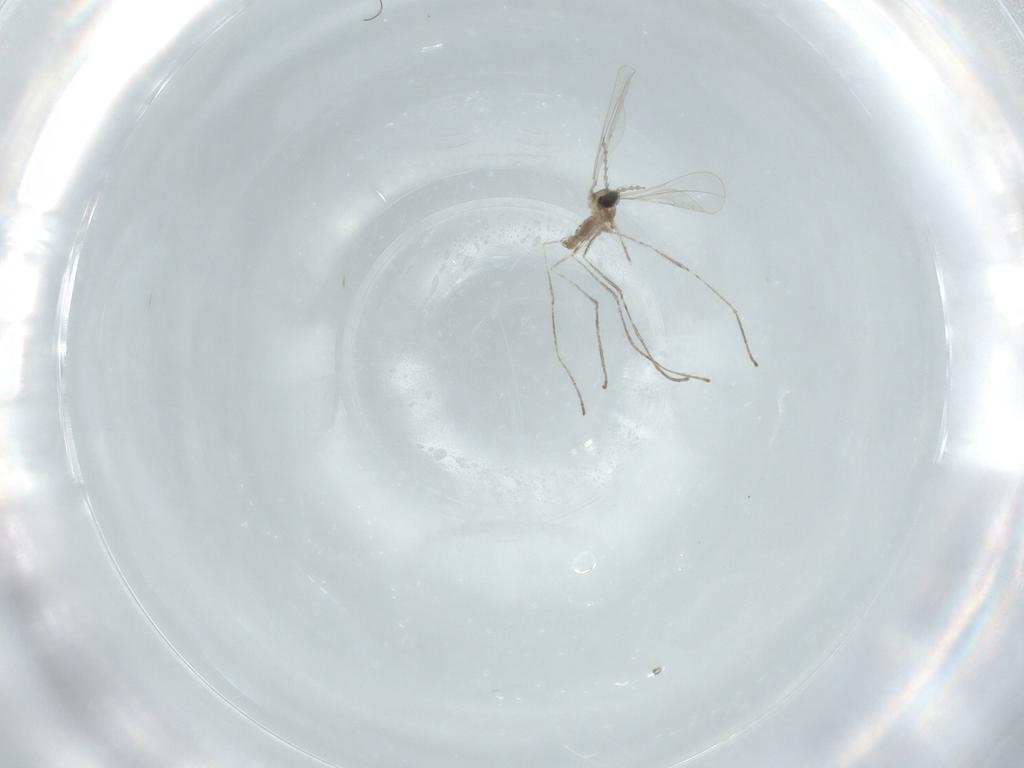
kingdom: Animalia
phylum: Arthropoda
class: Insecta
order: Diptera
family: Cecidomyiidae
